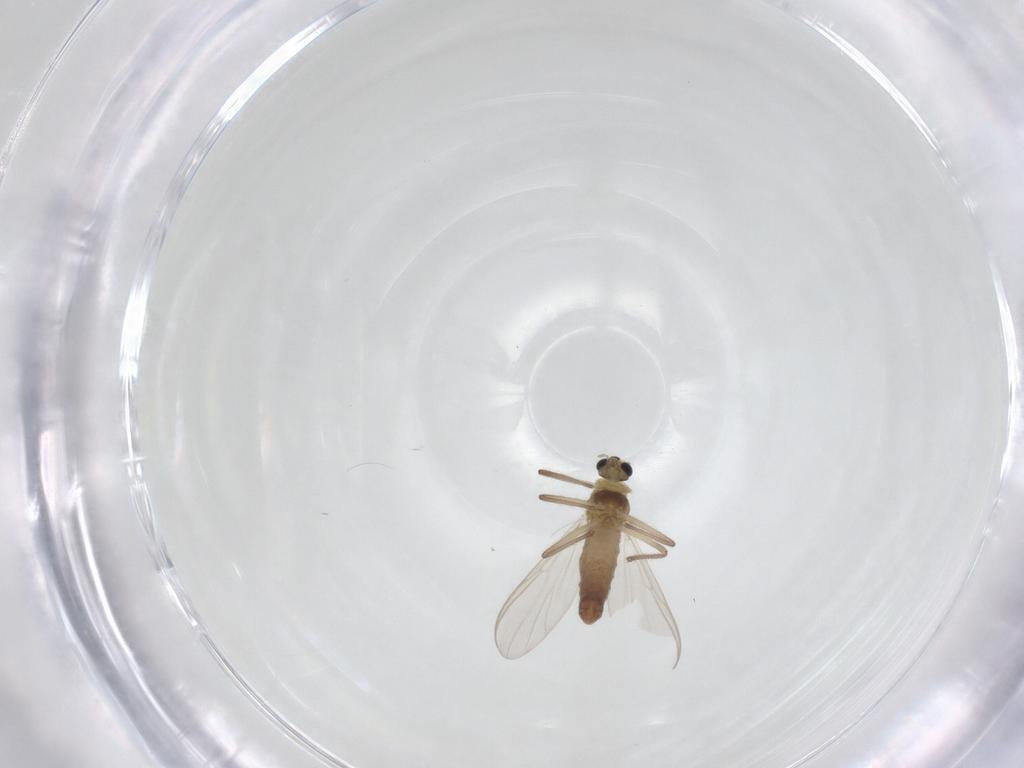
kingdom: Animalia
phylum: Arthropoda
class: Insecta
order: Diptera
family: Chironomidae
